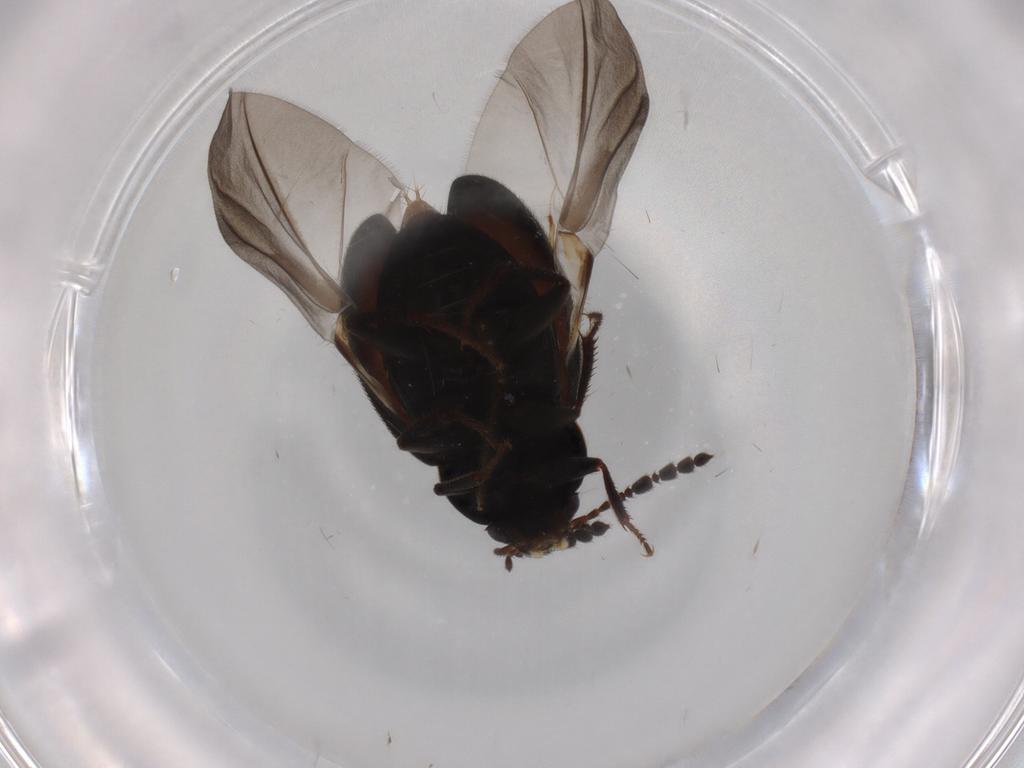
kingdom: Animalia
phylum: Arthropoda
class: Insecta
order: Coleoptera
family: Leiodidae
